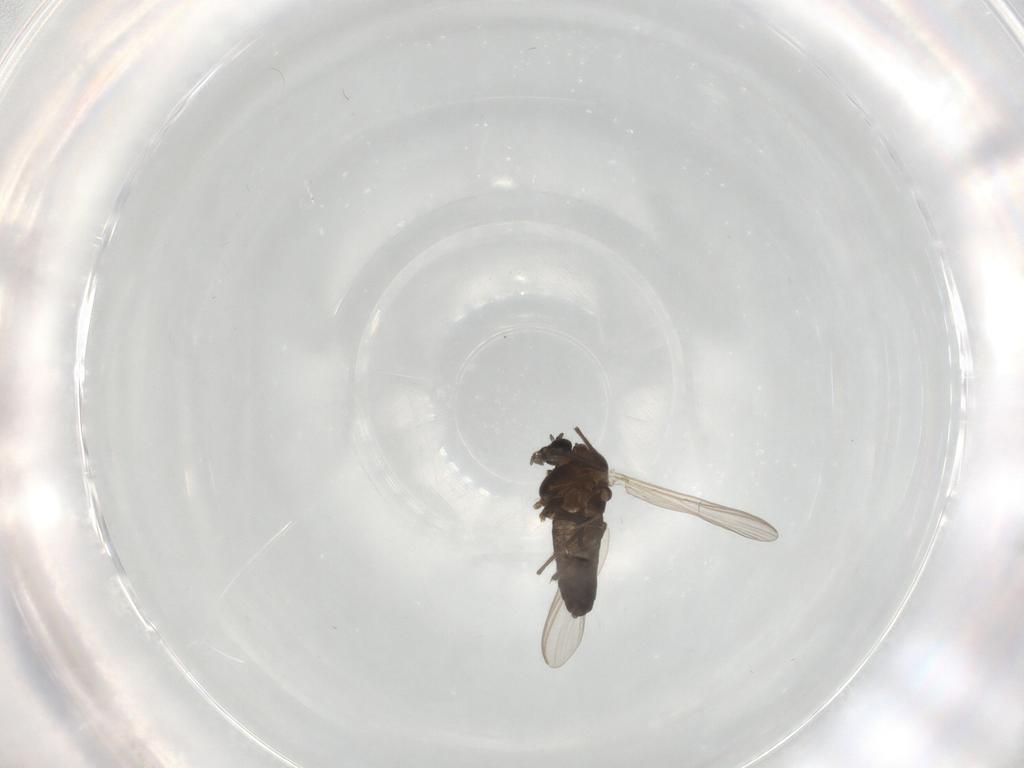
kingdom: Animalia
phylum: Arthropoda
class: Insecta
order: Diptera
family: Chironomidae
